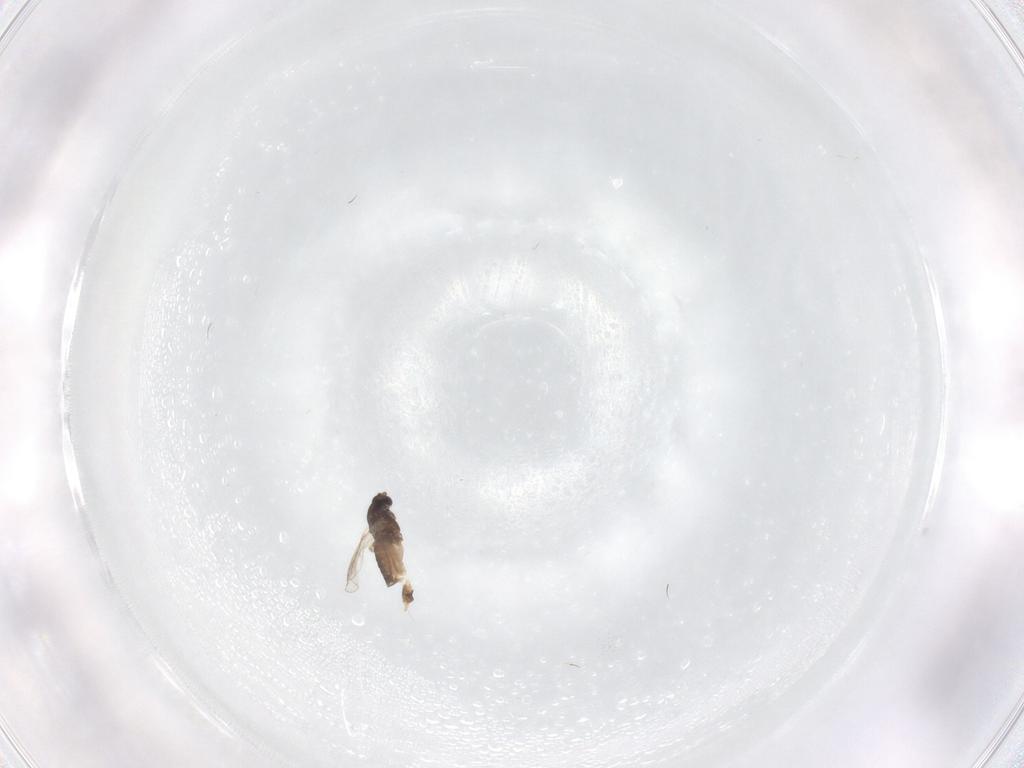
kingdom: Animalia
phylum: Arthropoda
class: Insecta
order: Diptera
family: Chironomidae
